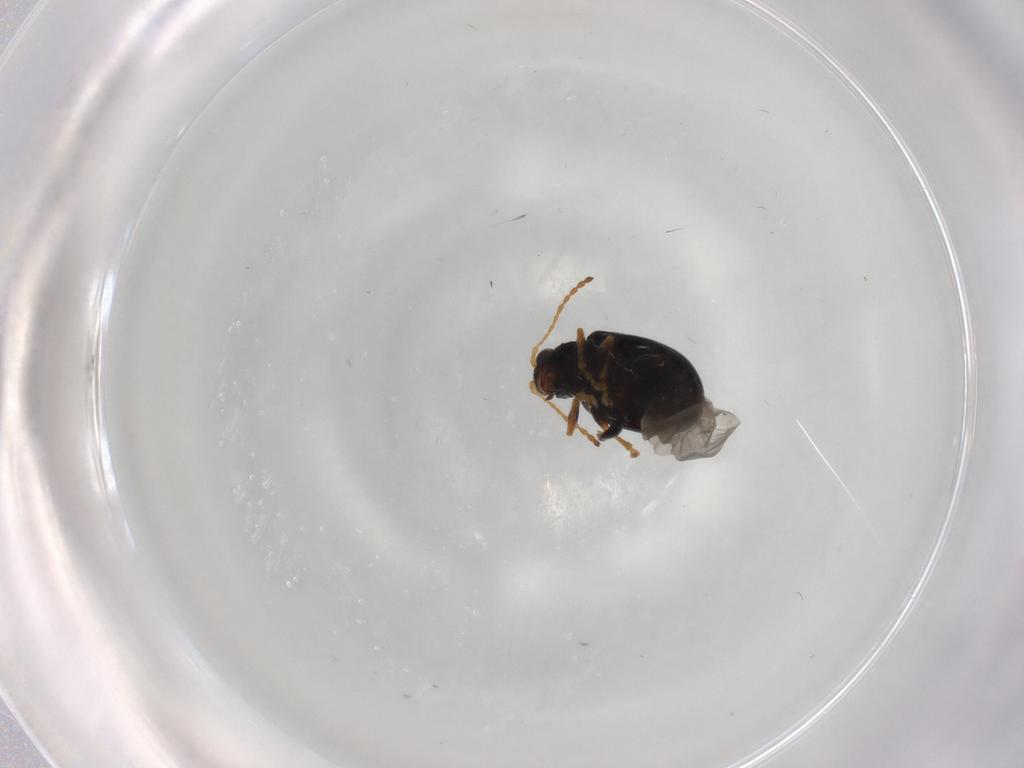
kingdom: Animalia
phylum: Arthropoda
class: Insecta
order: Coleoptera
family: Chrysomelidae
